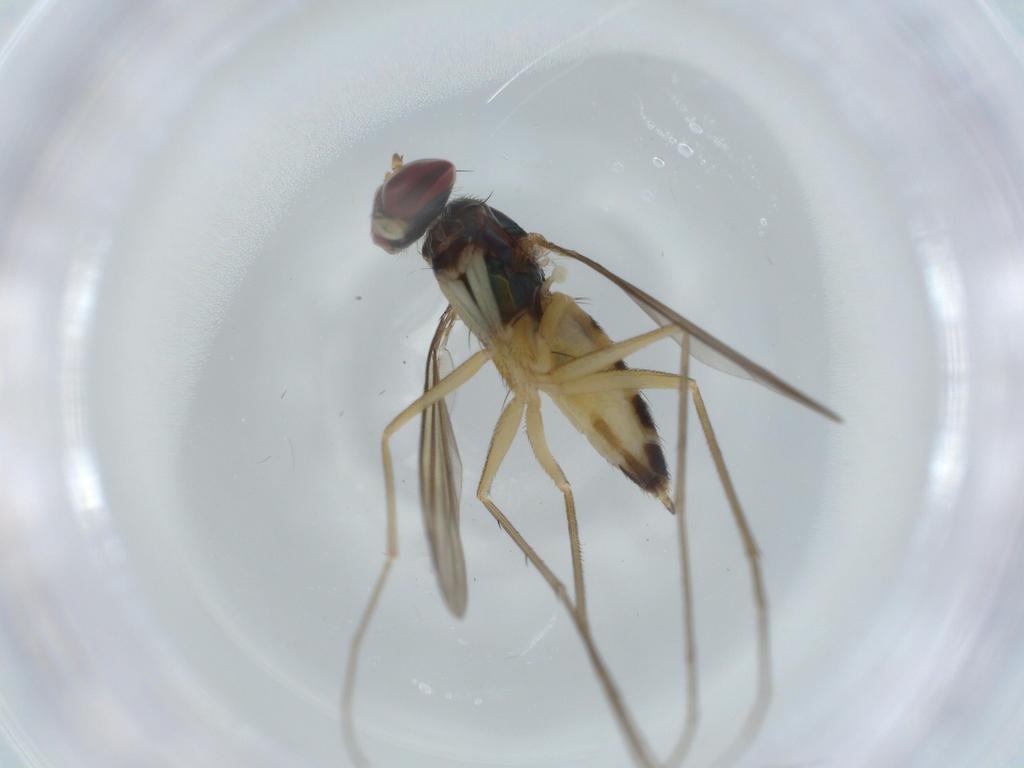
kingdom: Animalia
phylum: Arthropoda
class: Insecta
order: Diptera
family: Dolichopodidae
